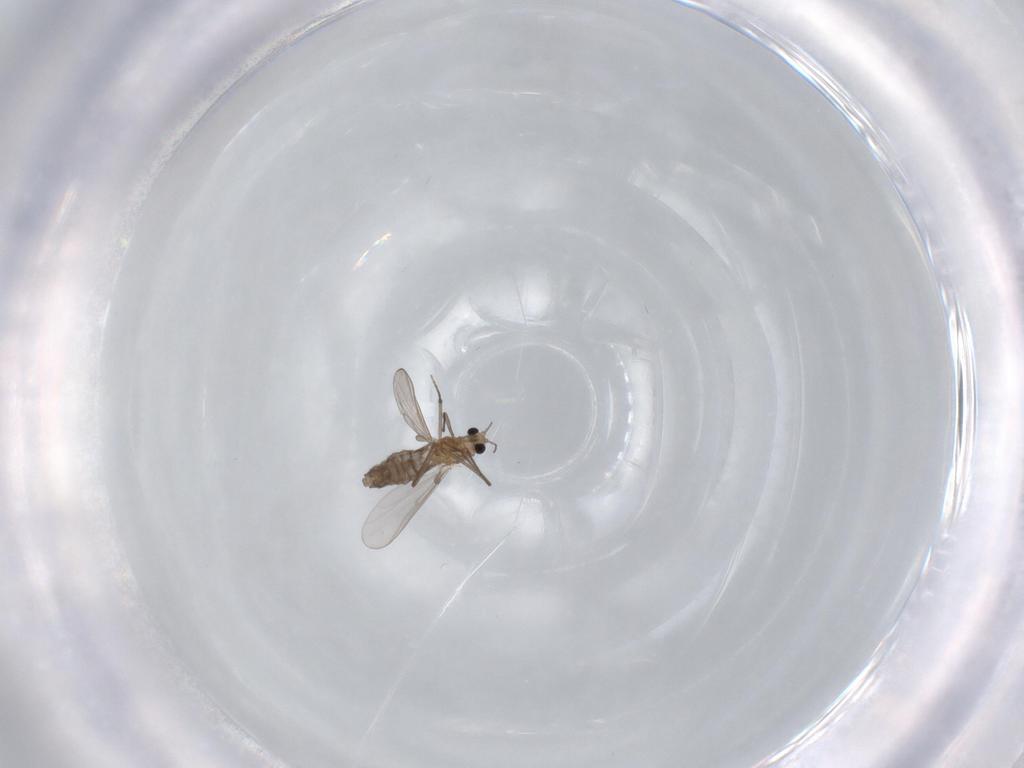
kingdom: Animalia
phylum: Arthropoda
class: Insecta
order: Diptera
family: Chironomidae
